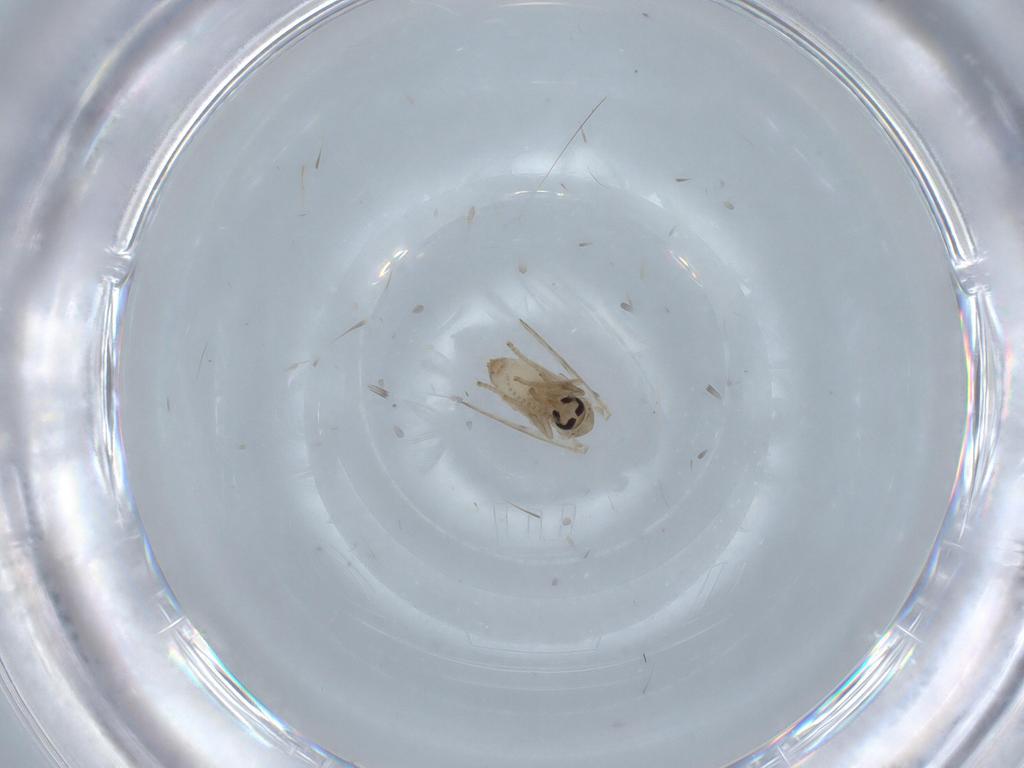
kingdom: Animalia
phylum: Arthropoda
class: Insecta
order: Diptera
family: Psychodidae
